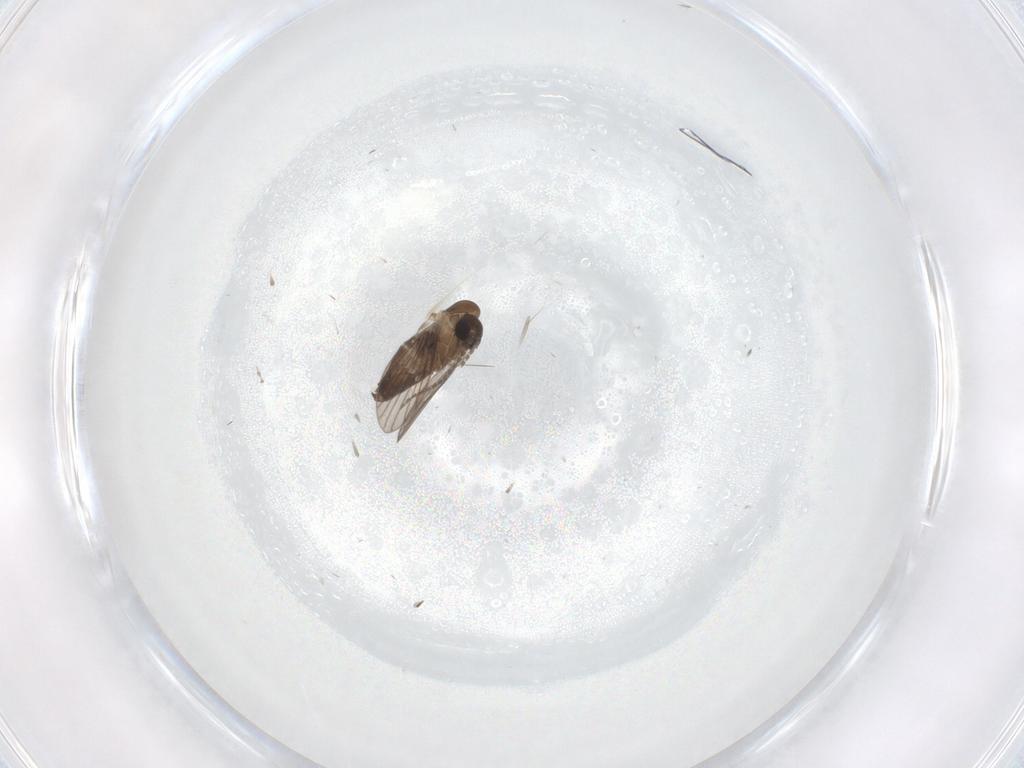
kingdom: Animalia
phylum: Arthropoda
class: Insecta
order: Diptera
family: Cecidomyiidae
